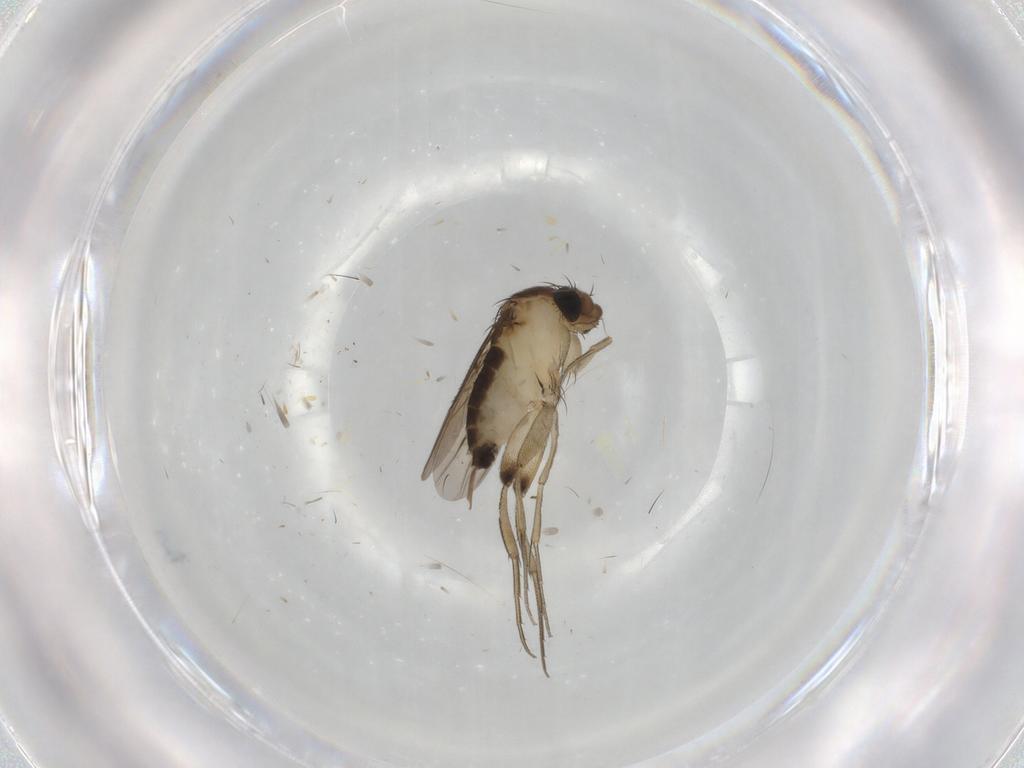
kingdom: Animalia
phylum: Arthropoda
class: Insecta
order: Diptera
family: Phoridae
